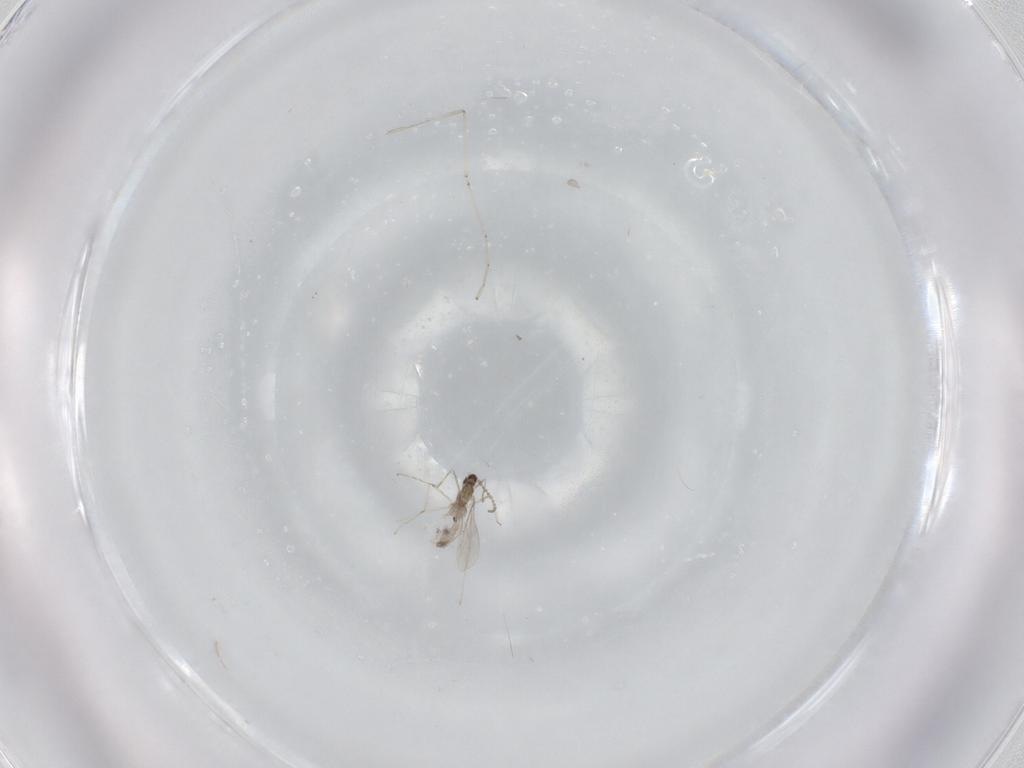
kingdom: Animalia
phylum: Arthropoda
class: Insecta
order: Diptera
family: Cecidomyiidae
